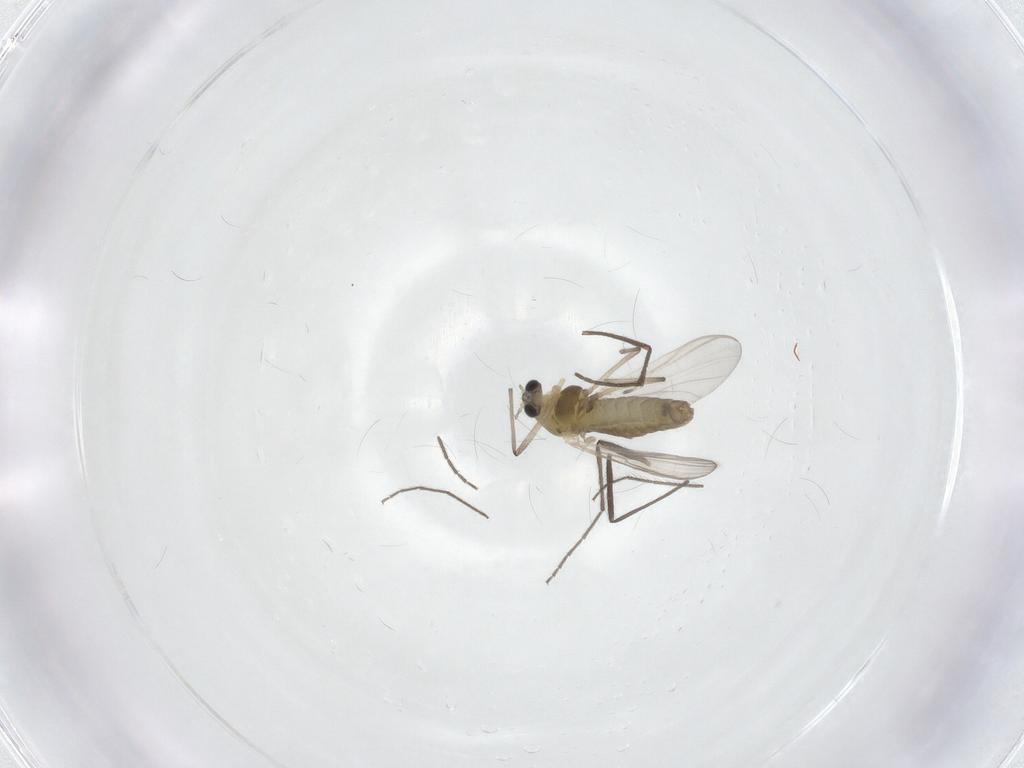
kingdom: Animalia
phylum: Arthropoda
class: Insecta
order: Diptera
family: Chironomidae
